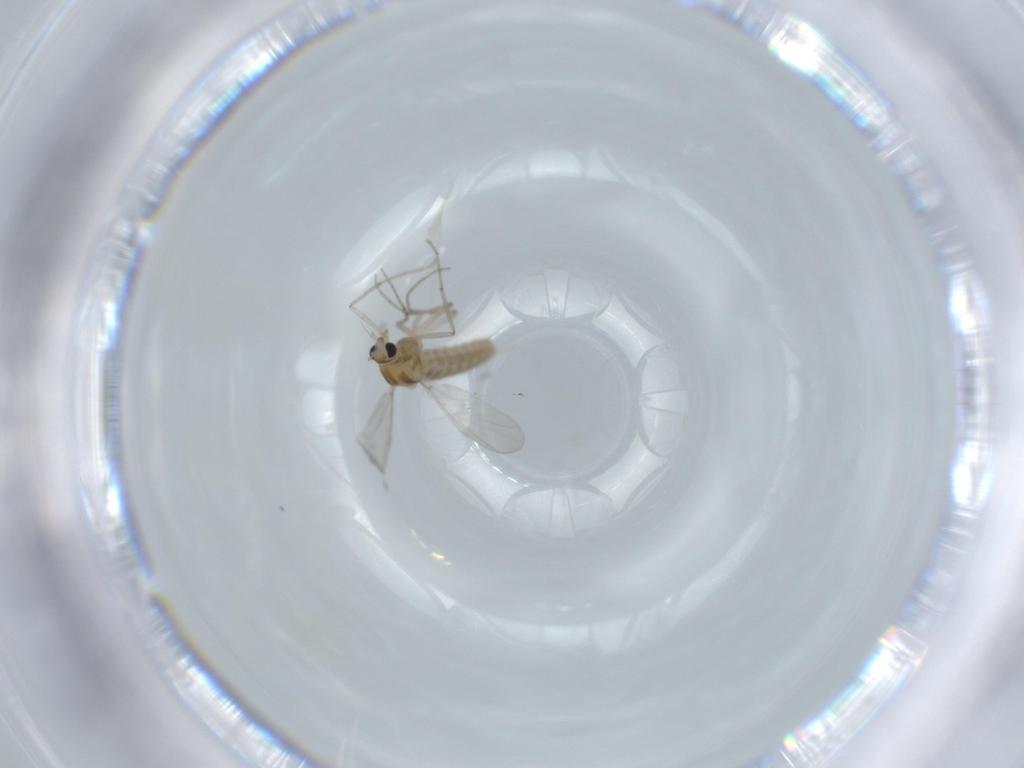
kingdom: Animalia
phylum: Arthropoda
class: Insecta
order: Diptera
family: Chironomidae
